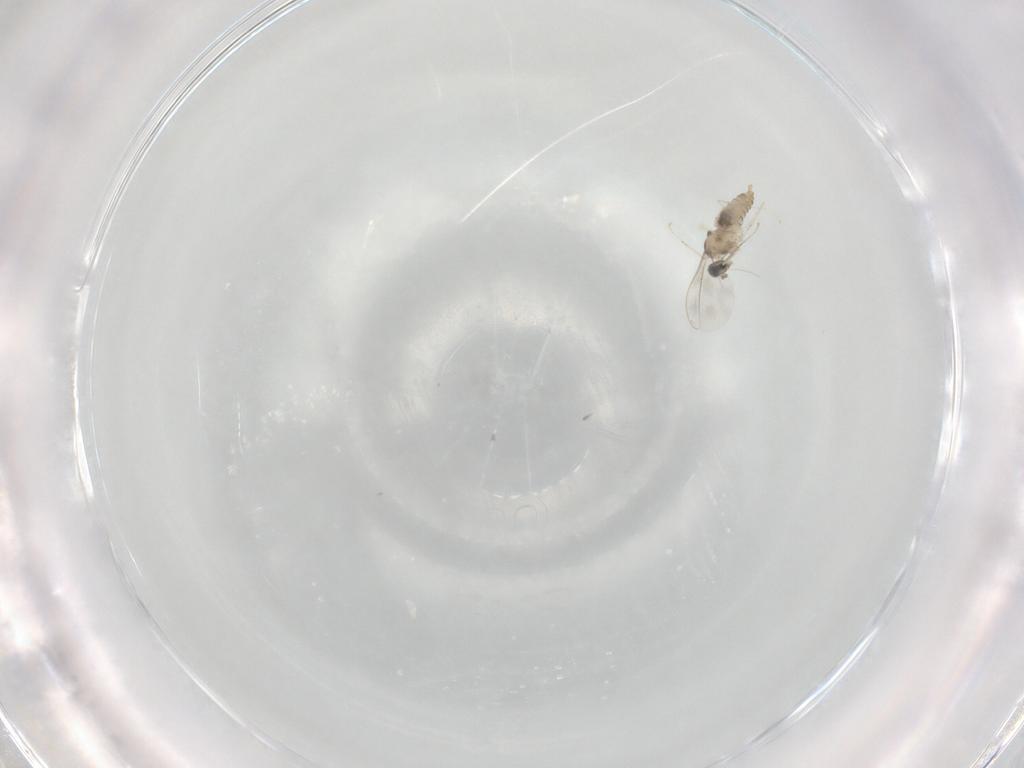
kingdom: Animalia
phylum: Arthropoda
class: Insecta
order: Diptera
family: Cecidomyiidae
